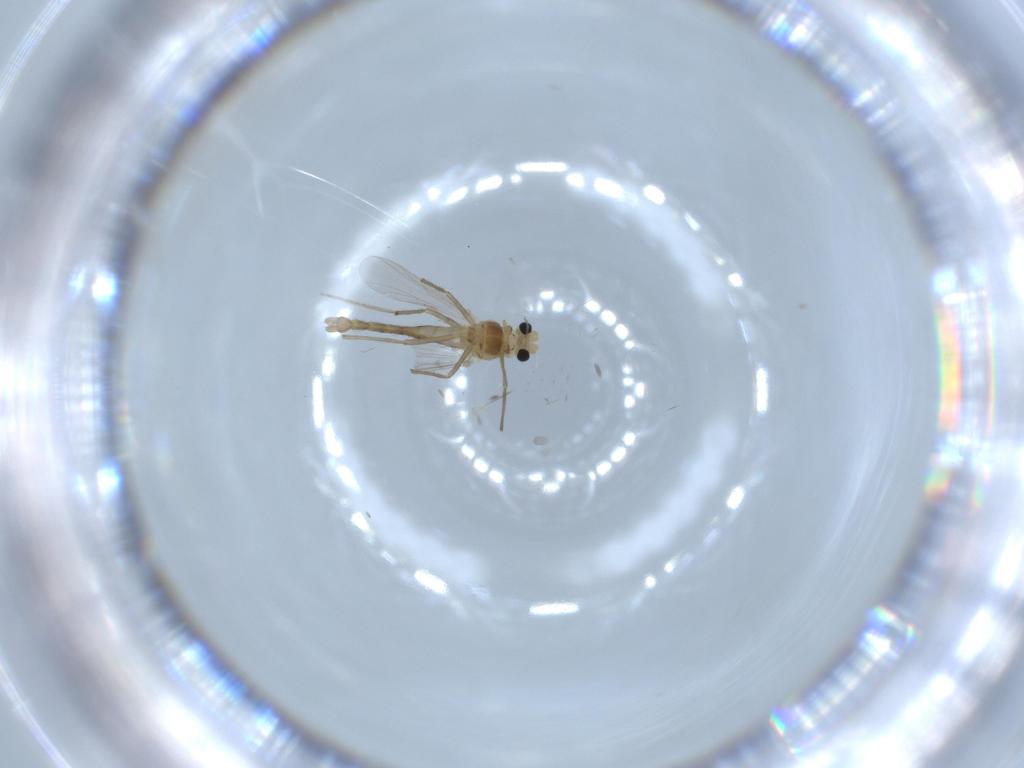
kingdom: Animalia
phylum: Arthropoda
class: Insecta
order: Diptera
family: Chironomidae
